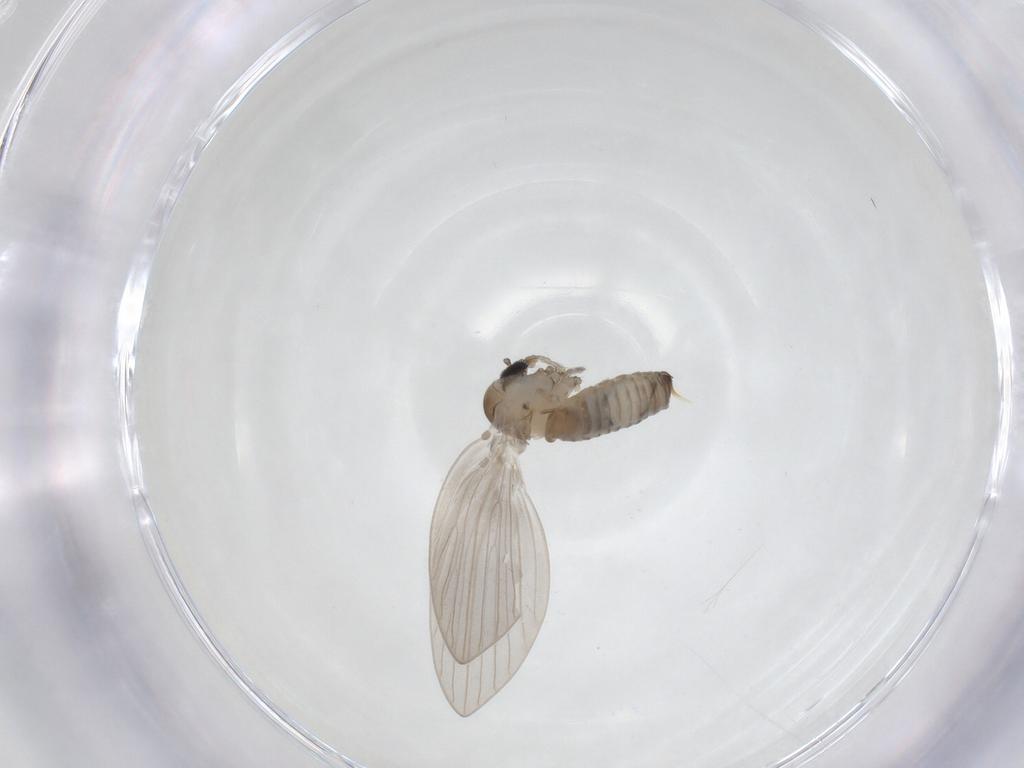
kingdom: Animalia
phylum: Arthropoda
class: Insecta
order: Diptera
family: Psychodidae
